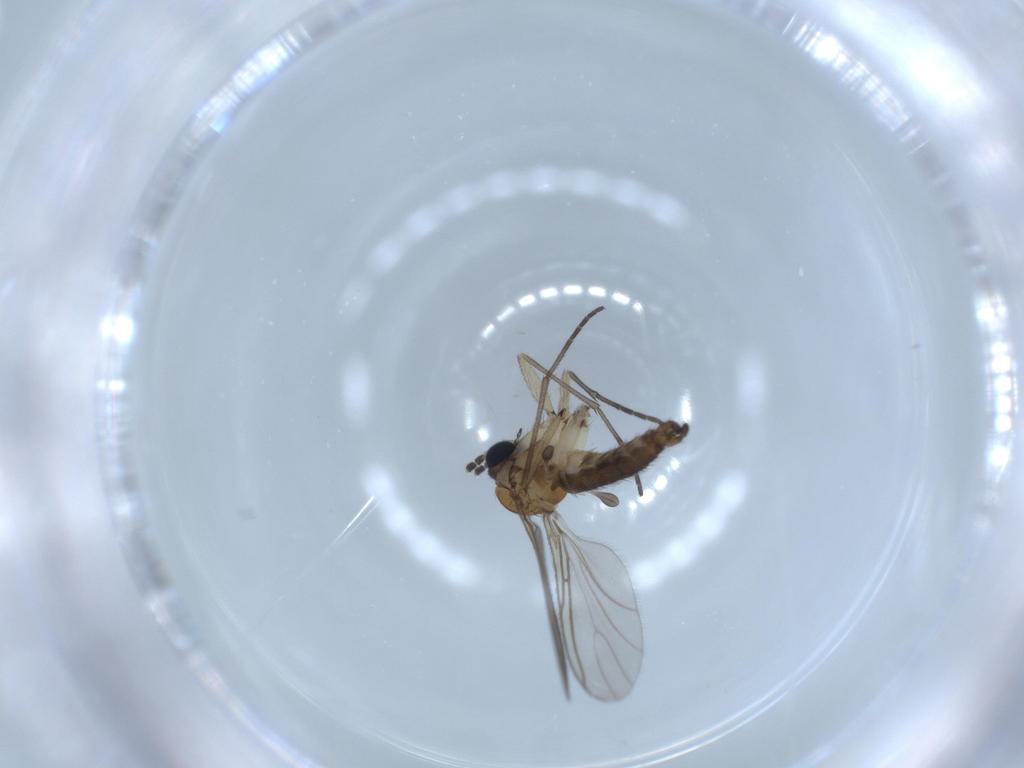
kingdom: Animalia
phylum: Arthropoda
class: Insecta
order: Diptera
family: Sciaridae
